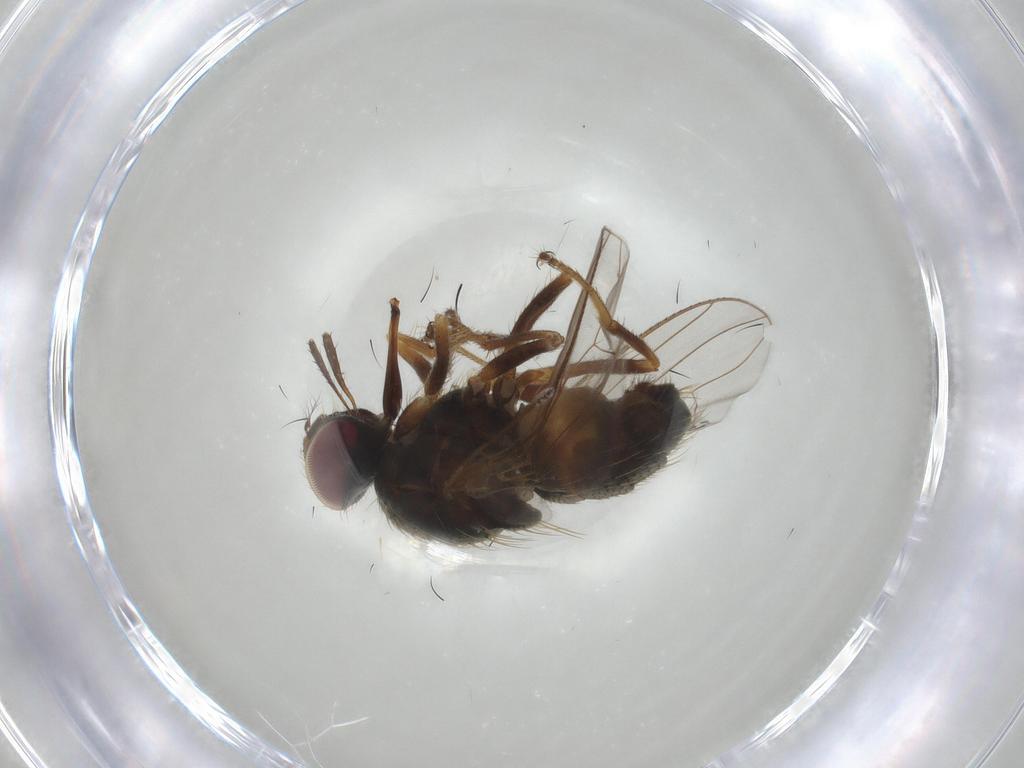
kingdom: Animalia
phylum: Arthropoda
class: Insecta
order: Diptera
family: Muscidae
